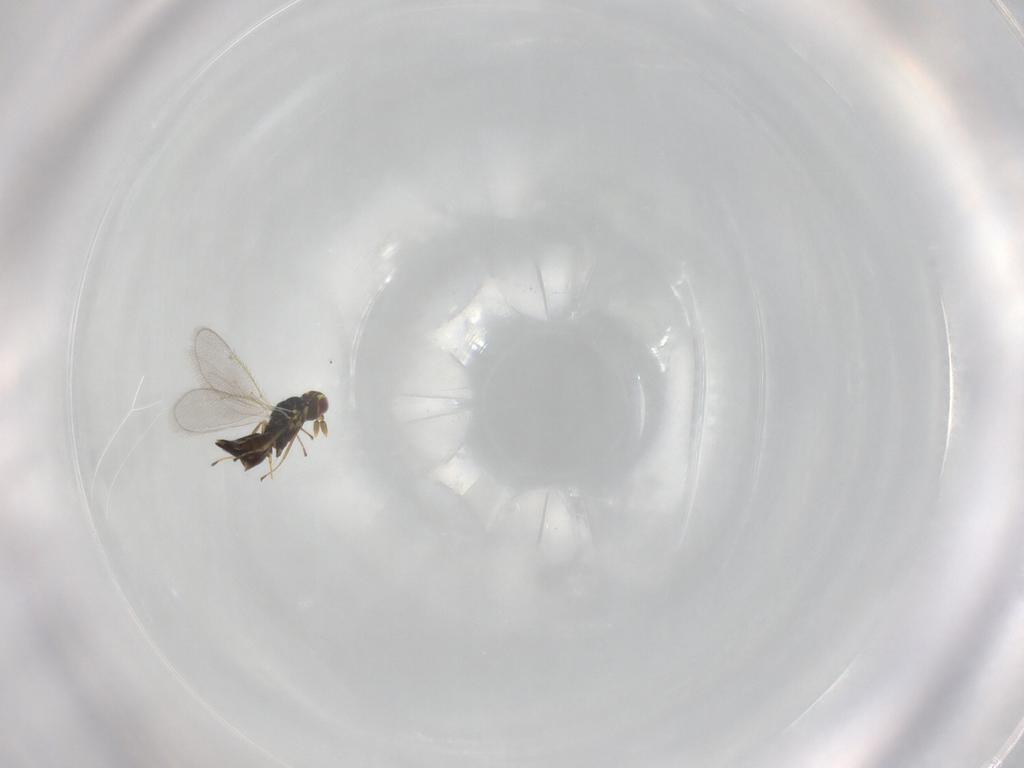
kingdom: Animalia
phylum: Arthropoda
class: Insecta
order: Hymenoptera
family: Eulophidae
